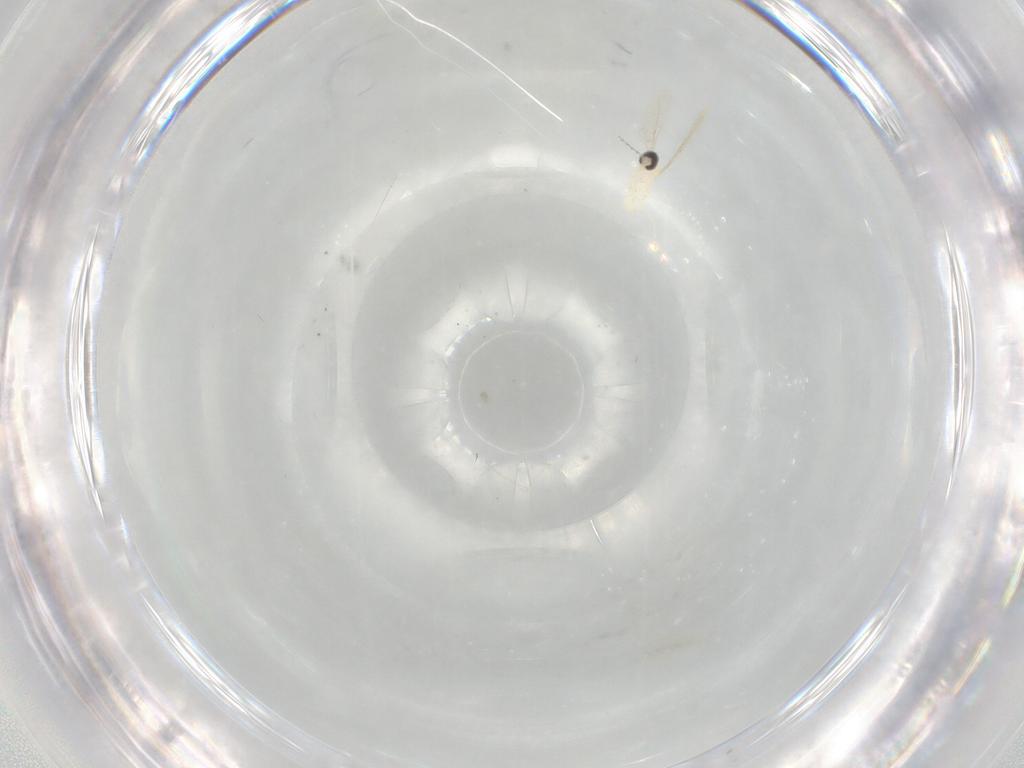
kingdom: Animalia
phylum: Arthropoda
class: Insecta
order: Diptera
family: Cecidomyiidae
